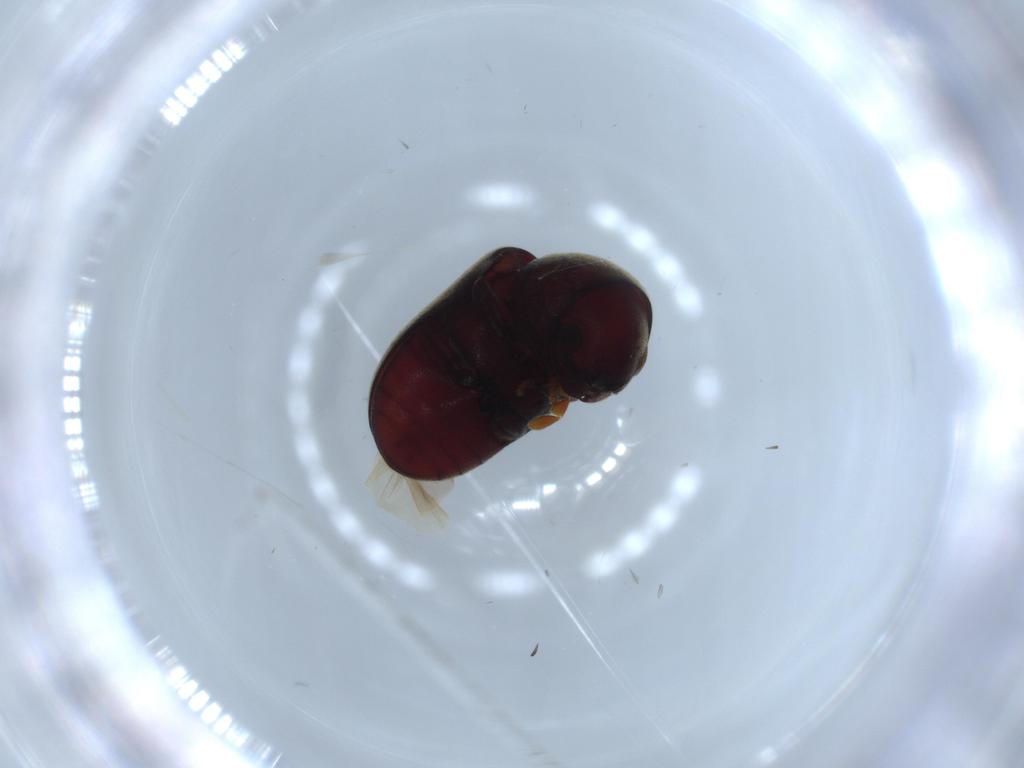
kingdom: Animalia
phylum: Arthropoda
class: Insecta
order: Coleoptera
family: Ptinidae
